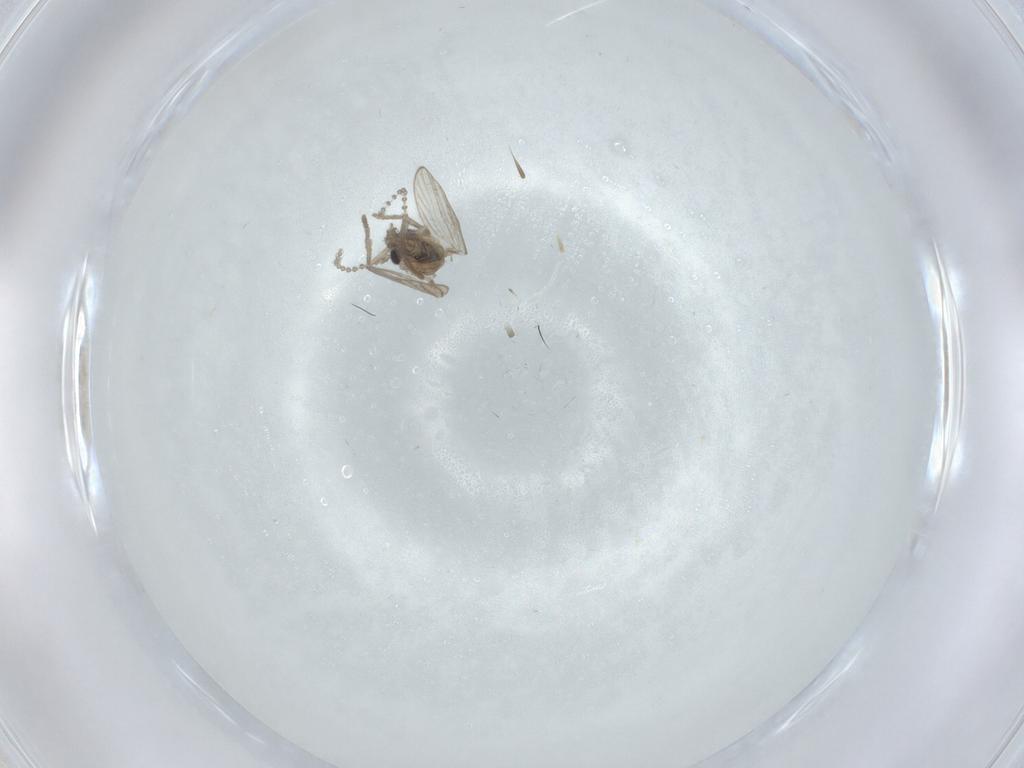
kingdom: Animalia
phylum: Arthropoda
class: Insecta
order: Diptera
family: Psychodidae
